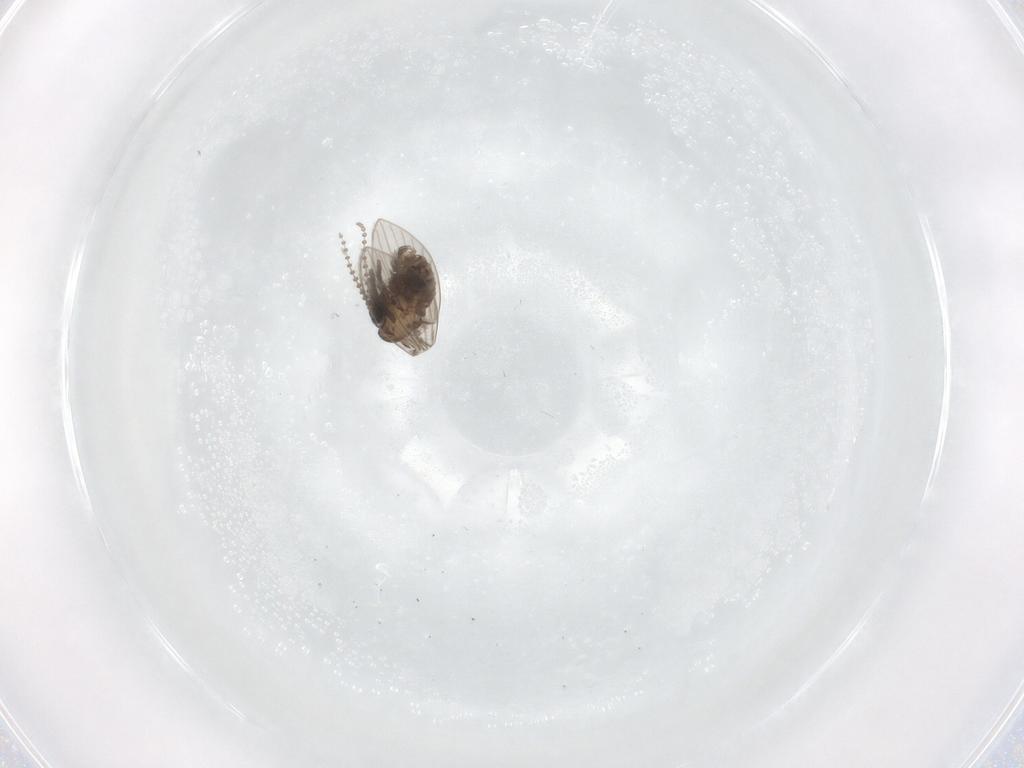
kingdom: Animalia
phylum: Arthropoda
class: Insecta
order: Diptera
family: Psychodidae
